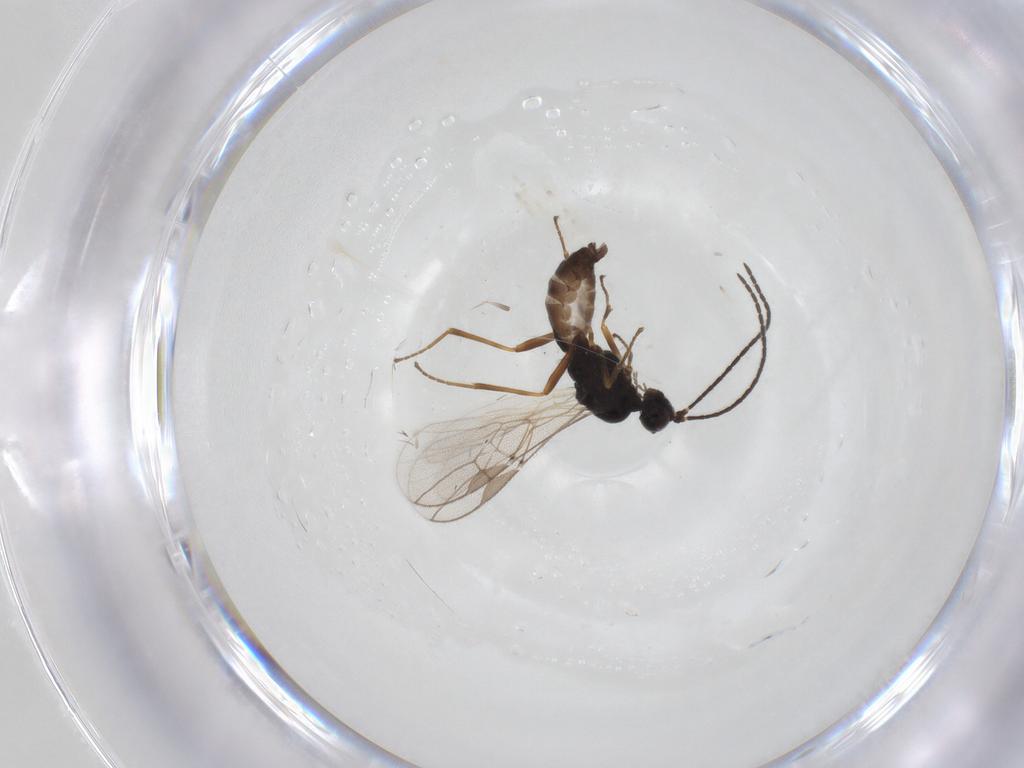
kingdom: Animalia
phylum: Arthropoda
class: Insecta
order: Hymenoptera
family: Braconidae
